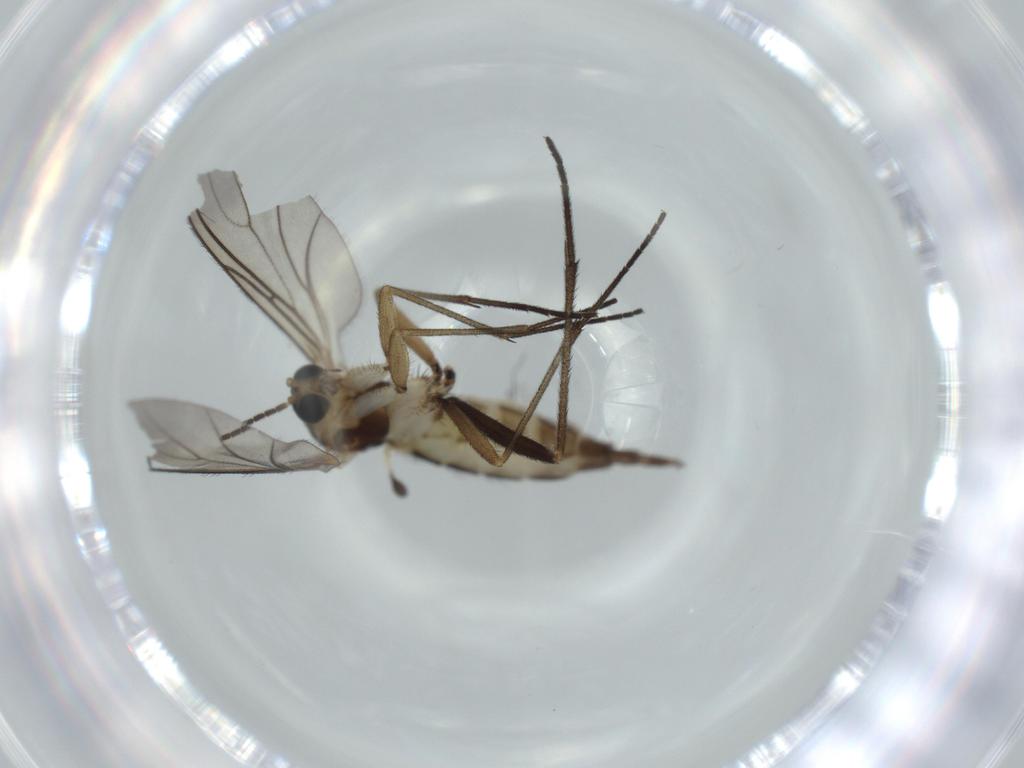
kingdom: Animalia
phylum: Arthropoda
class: Insecta
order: Diptera
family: Sciaridae
